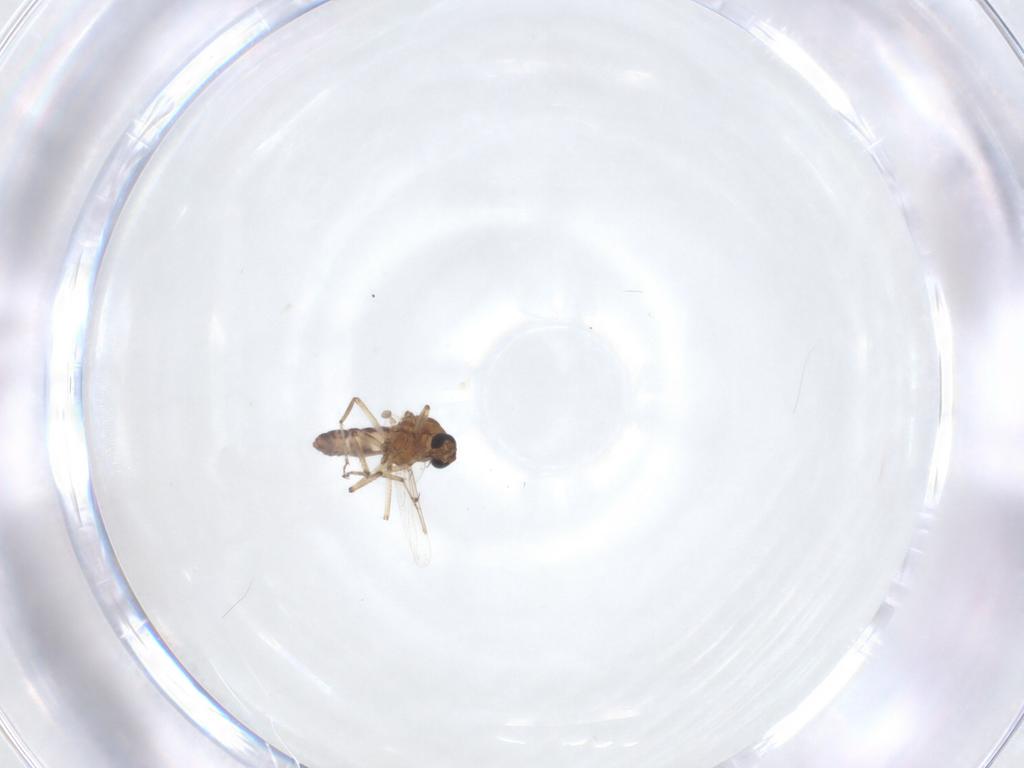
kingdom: Animalia
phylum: Arthropoda
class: Insecta
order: Diptera
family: Ceratopogonidae
